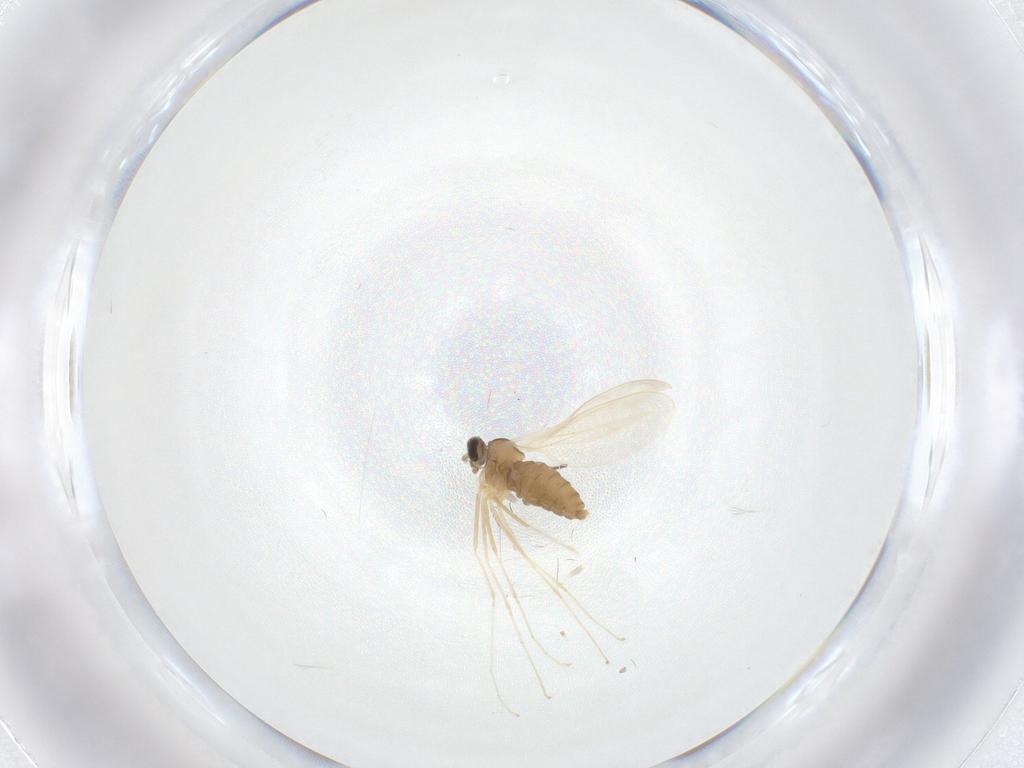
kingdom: Animalia
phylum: Arthropoda
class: Insecta
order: Diptera
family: Cecidomyiidae
